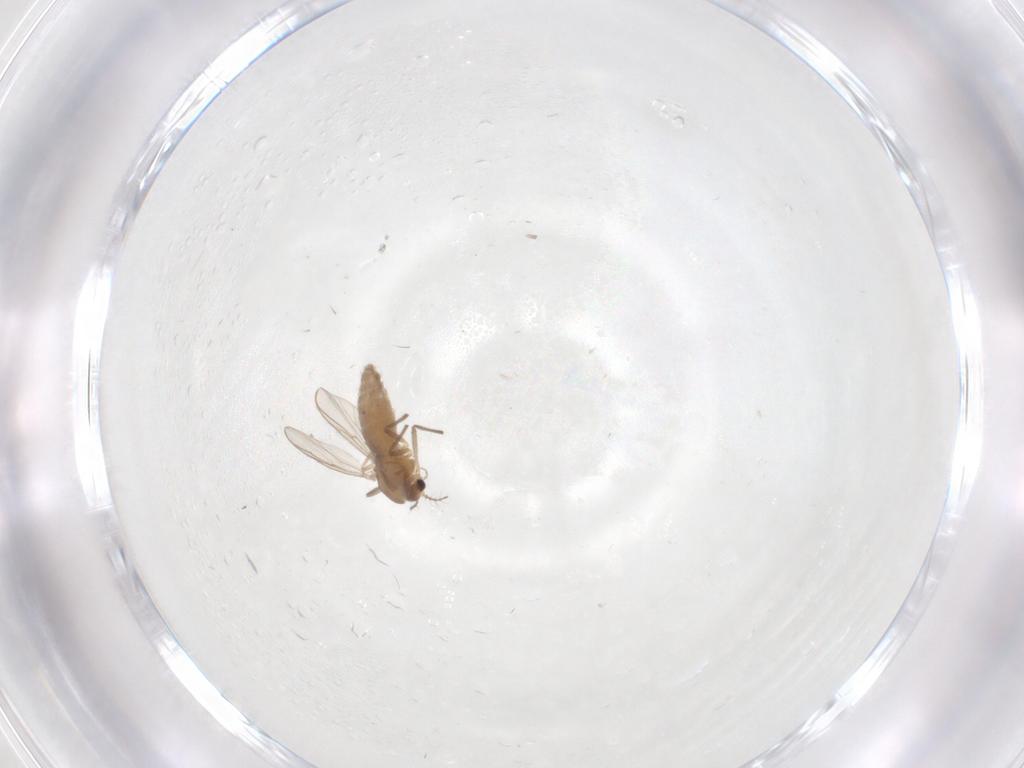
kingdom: Animalia
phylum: Arthropoda
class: Insecta
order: Diptera
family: Chironomidae
